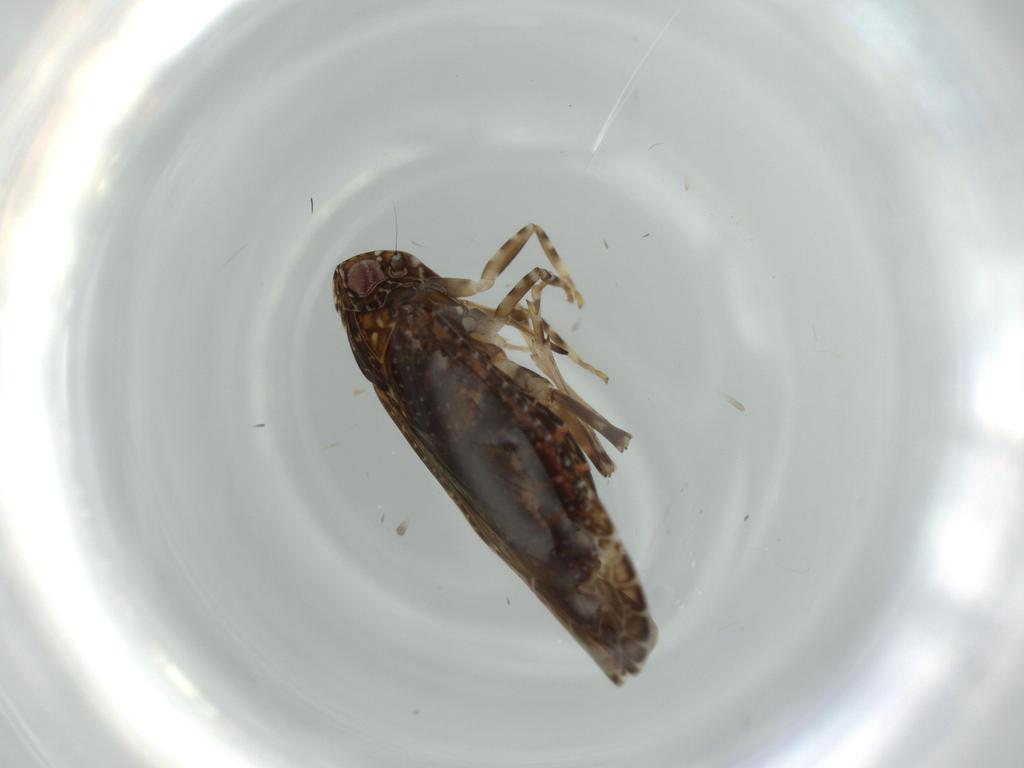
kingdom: Animalia
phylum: Arthropoda
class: Insecta
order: Hemiptera
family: Achilidae
